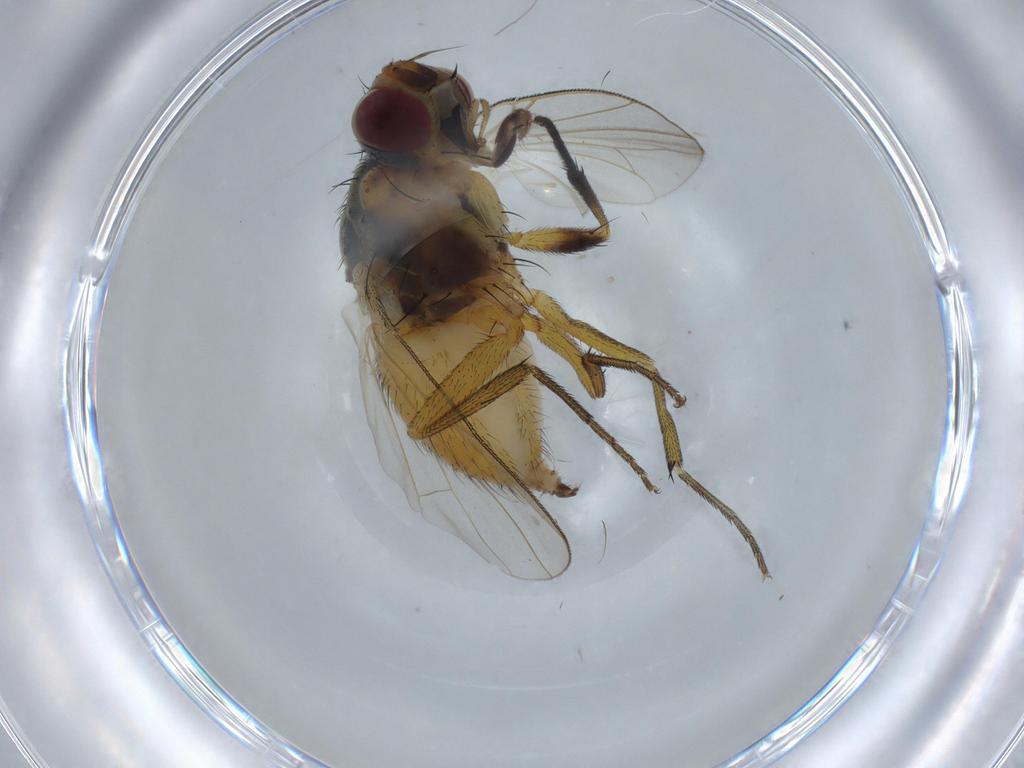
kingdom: Animalia
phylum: Arthropoda
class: Insecta
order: Diptera
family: Muscidae
